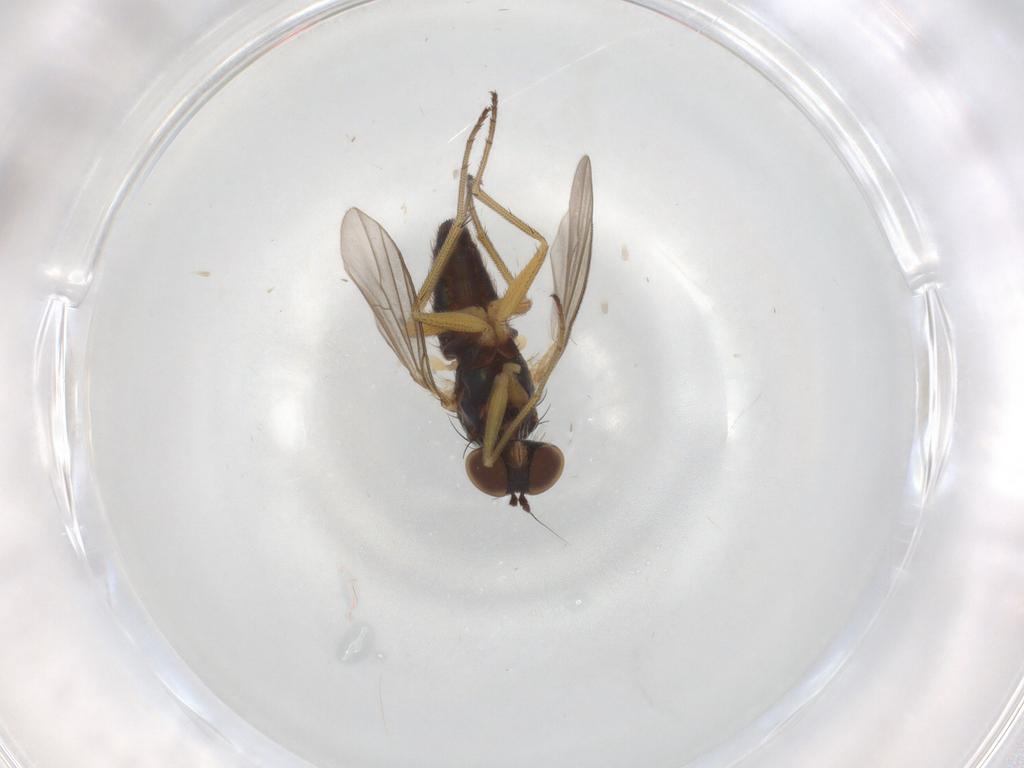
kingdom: Animalia
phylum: Arthropoda
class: Insecta
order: Diptera
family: Dolichopodidae
